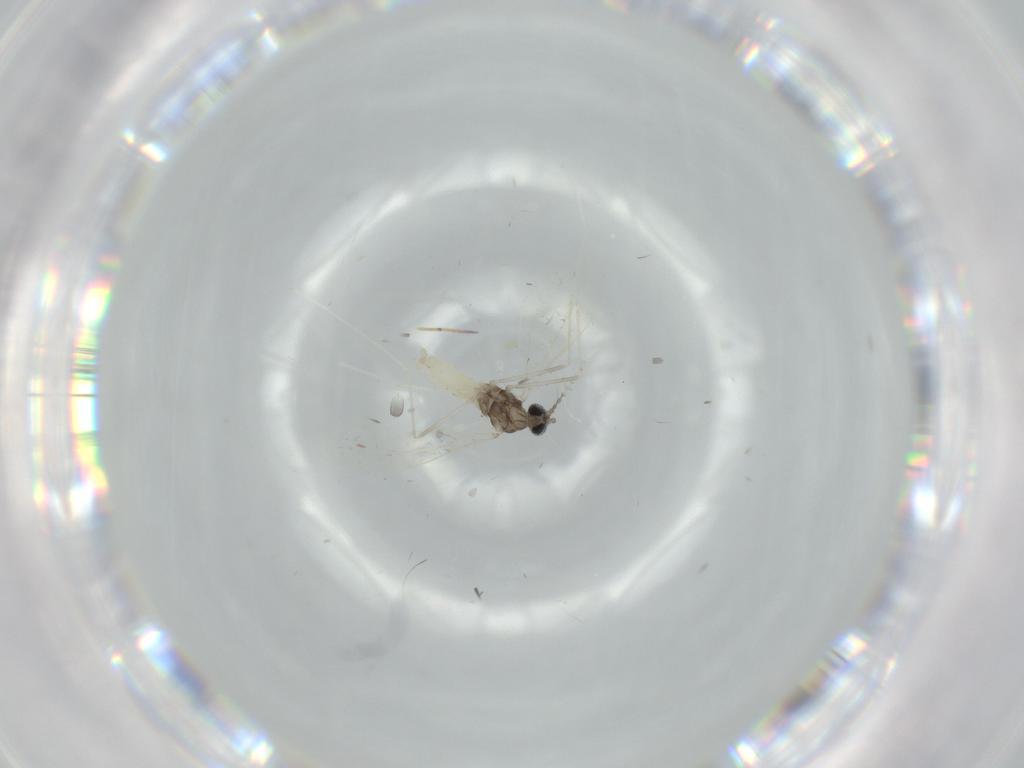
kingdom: Animalia
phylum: Arthropoda
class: Insecta
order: Diptera
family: Cecidomyiidae
